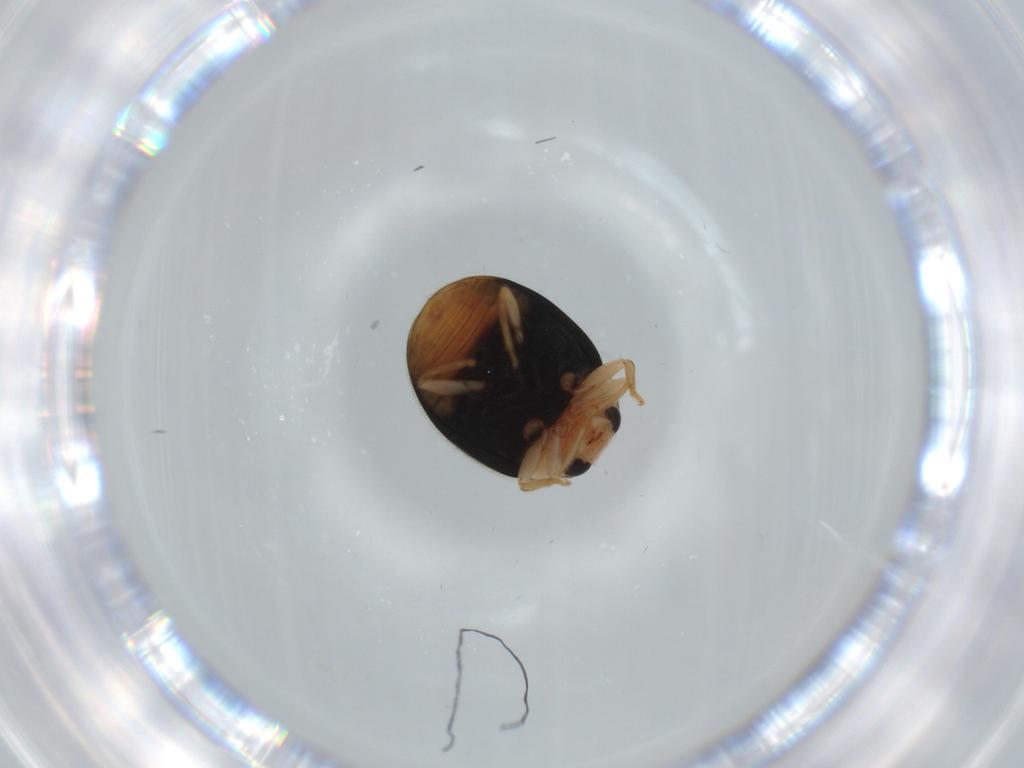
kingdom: Animalia
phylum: Arthropoda
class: Insecta
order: Coleoptera
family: Coccinellidae
